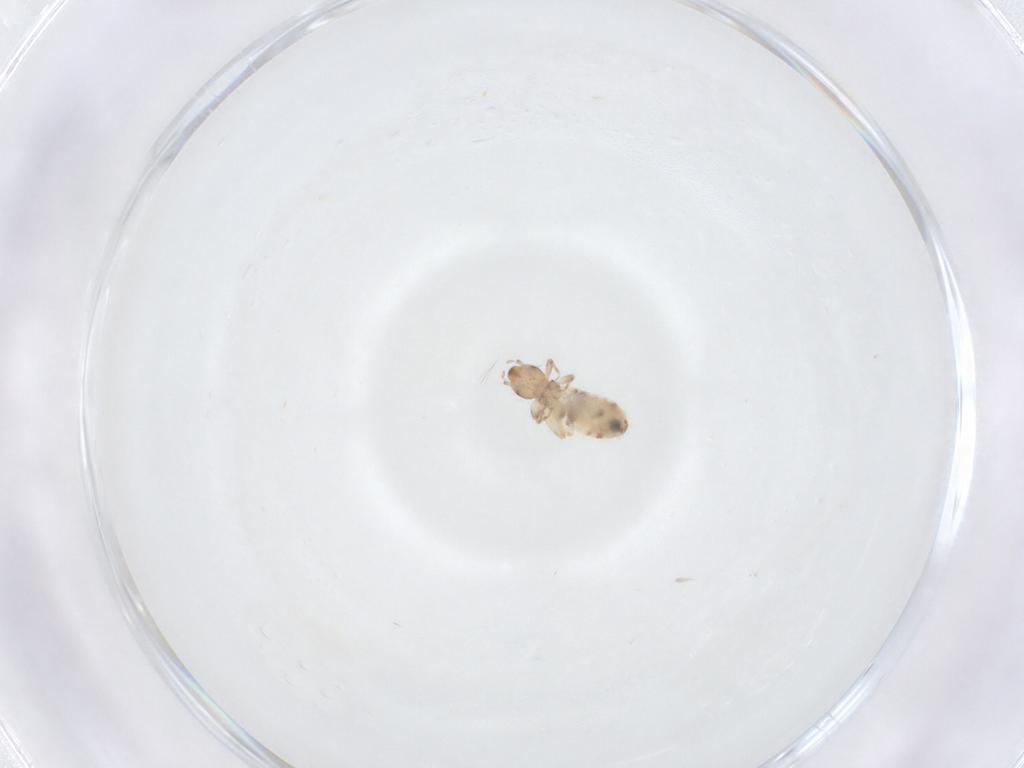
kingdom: Animalia
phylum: Arthropoda
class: Insecta
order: Psocodea
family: Liposcelididae
